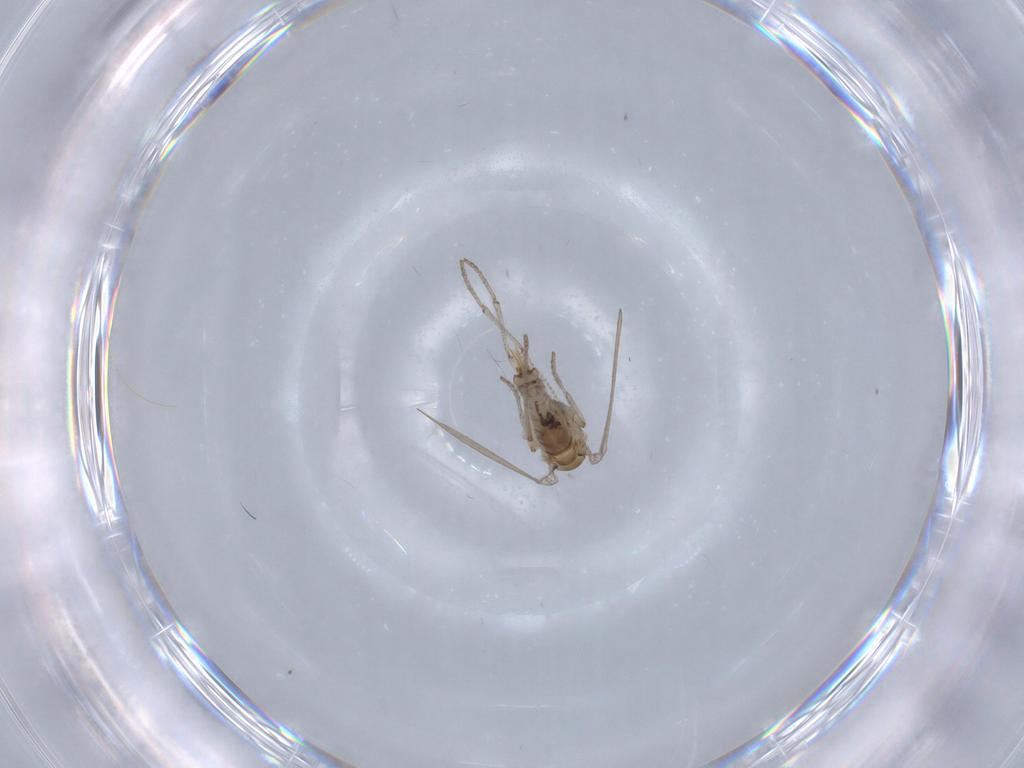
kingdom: Animalia
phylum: Arthropoda
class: Insecta
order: Diptera
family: Psychodidae
